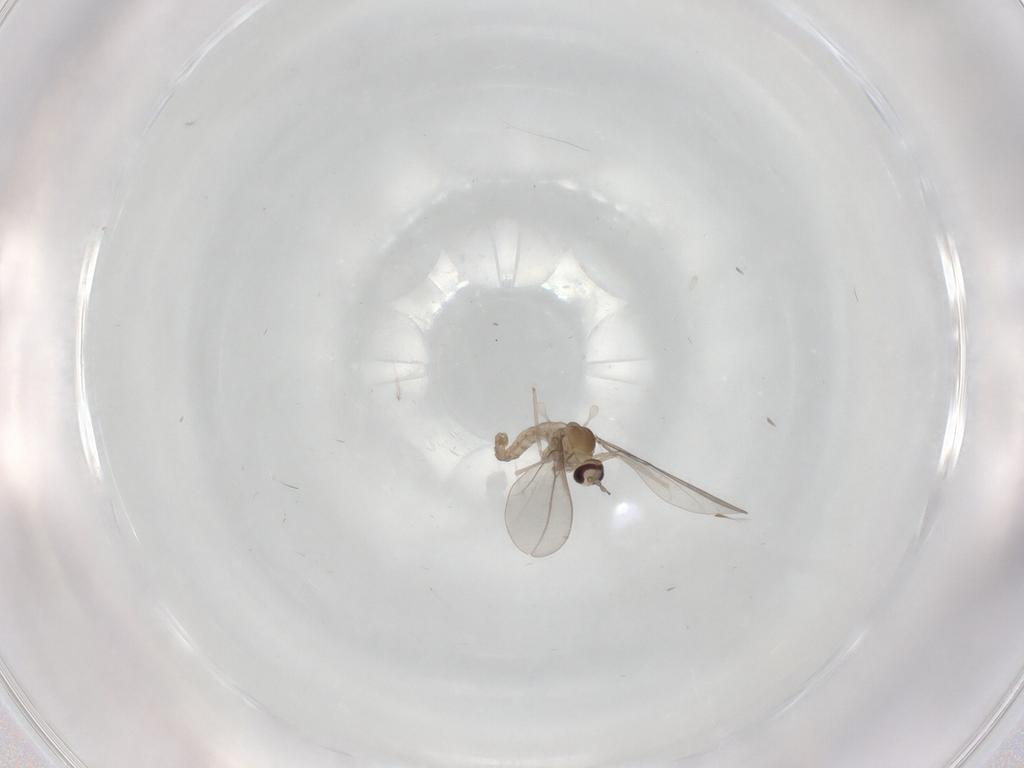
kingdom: Animalia
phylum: Arthropoda
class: Insecta
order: Diptera
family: Cecidomyiidae
